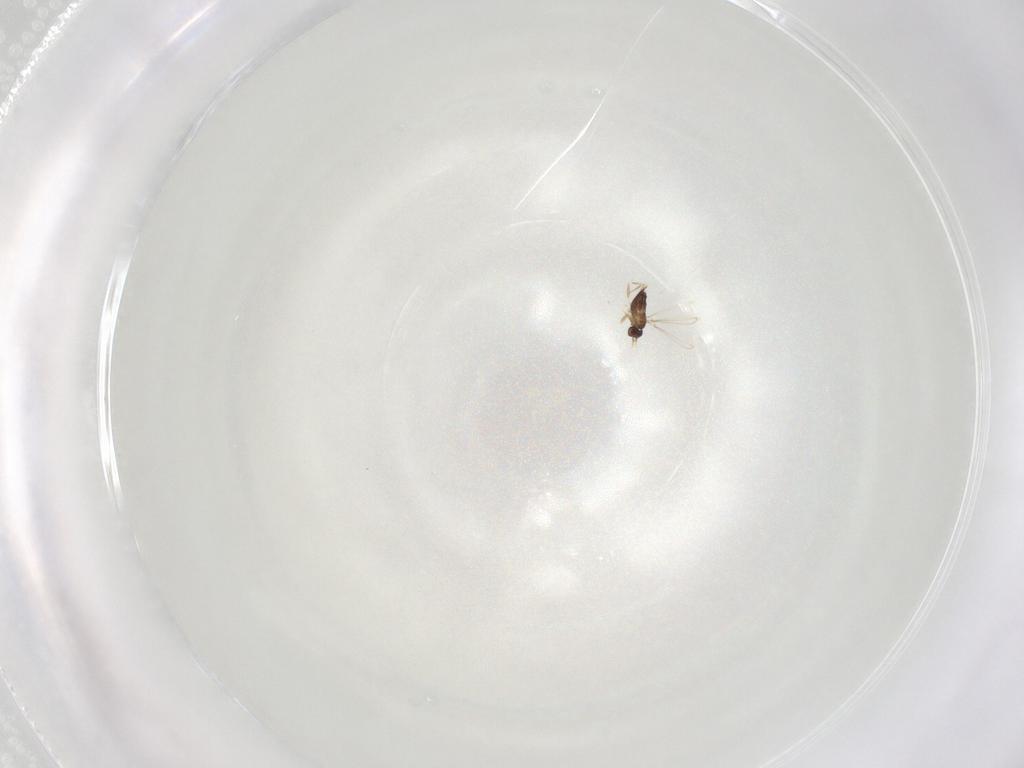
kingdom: Animalia
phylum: Arthropoda
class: Insecta
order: Hymenoptera
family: Mymaridae
